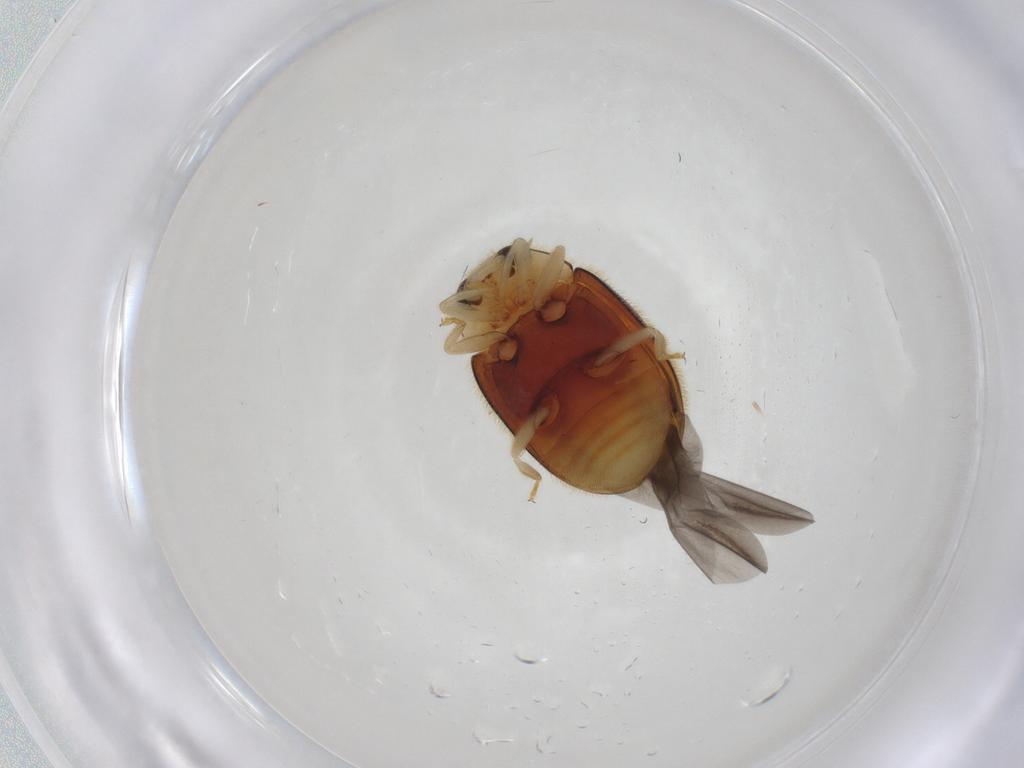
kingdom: Animalia
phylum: Arthropoda
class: Insecta
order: Coleoptera
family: Coccinellidae
